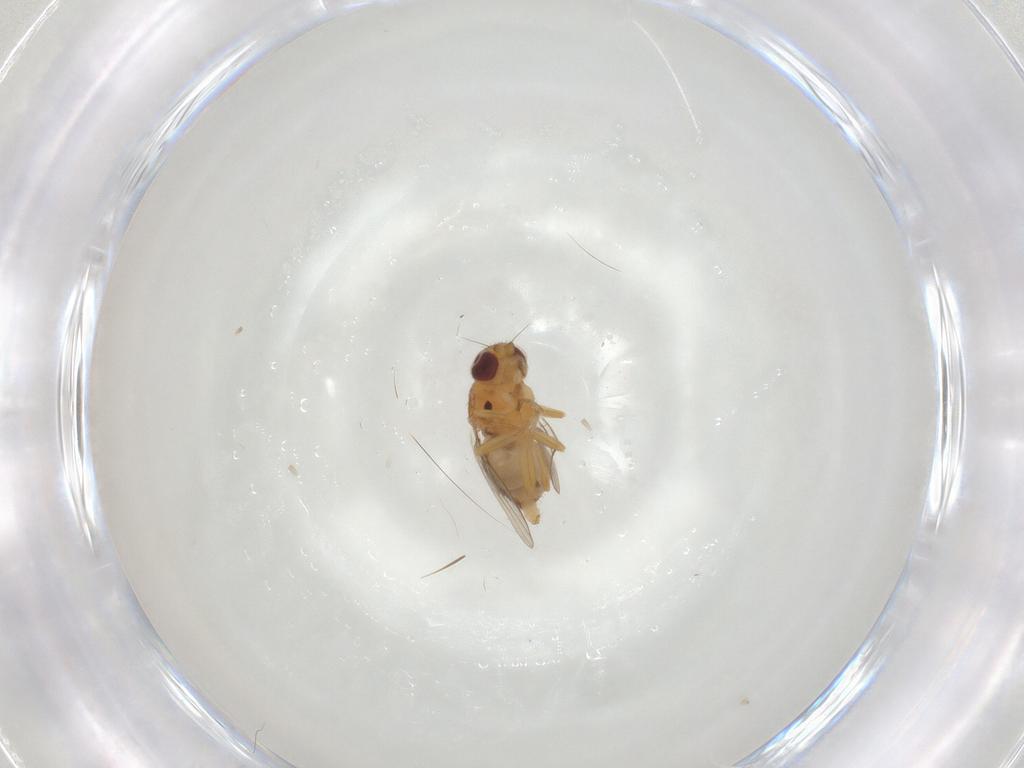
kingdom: Animalia
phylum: Arthropoda
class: Insecta
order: Diptera
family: Chloropidae
